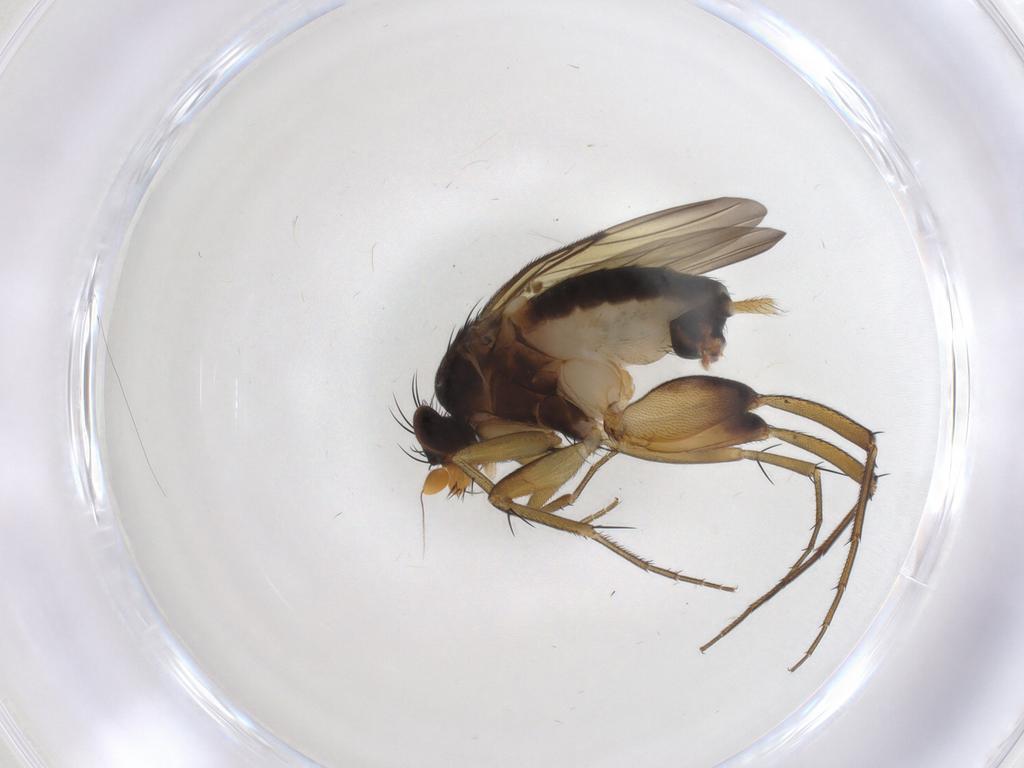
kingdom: Animalia
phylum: Arthropoda
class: Insecta
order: Diptera
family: Phoridae
